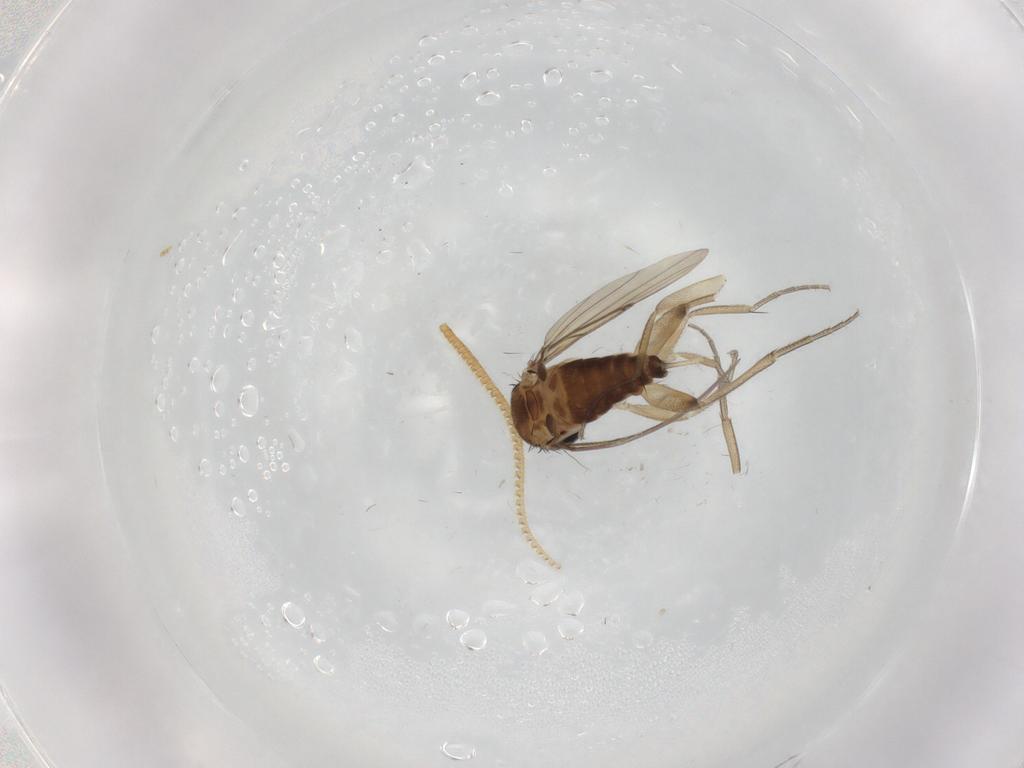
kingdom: Animalia
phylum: Arthropoda
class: Insecta
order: Diptera
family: Phoridae
